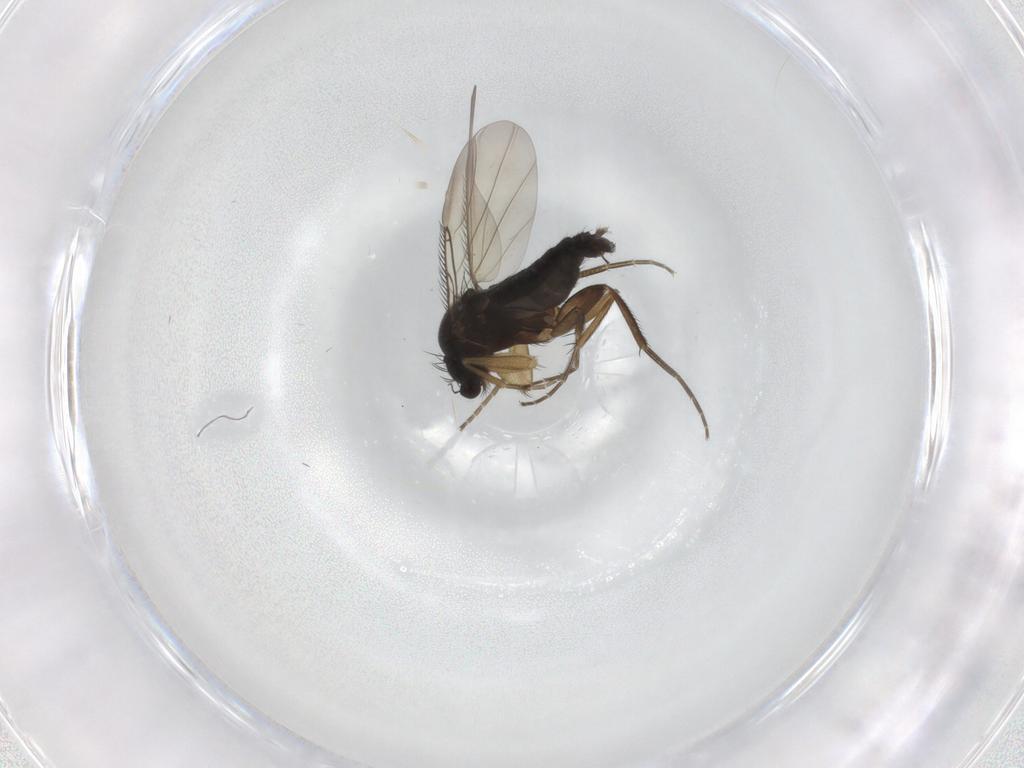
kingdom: Animalia
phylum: Arthropoda
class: Insecta
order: Diptera
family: Phoridae
